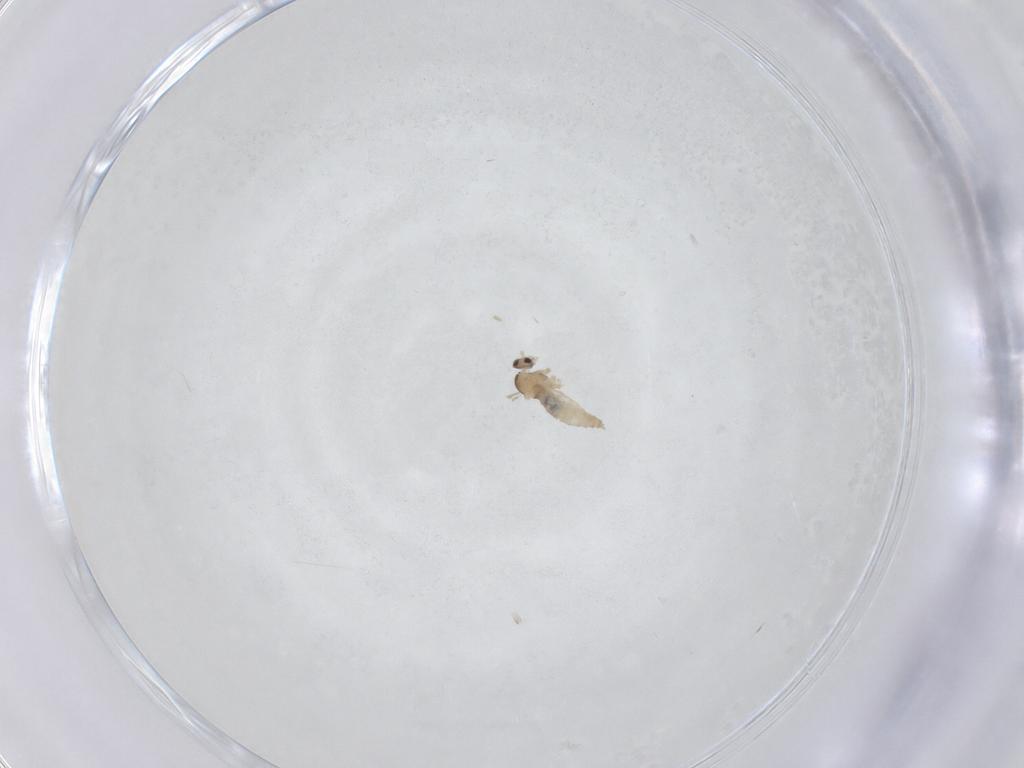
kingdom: Animalia
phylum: Arthropoda
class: Insecta
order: Diptera
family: Cecidomyiidae
